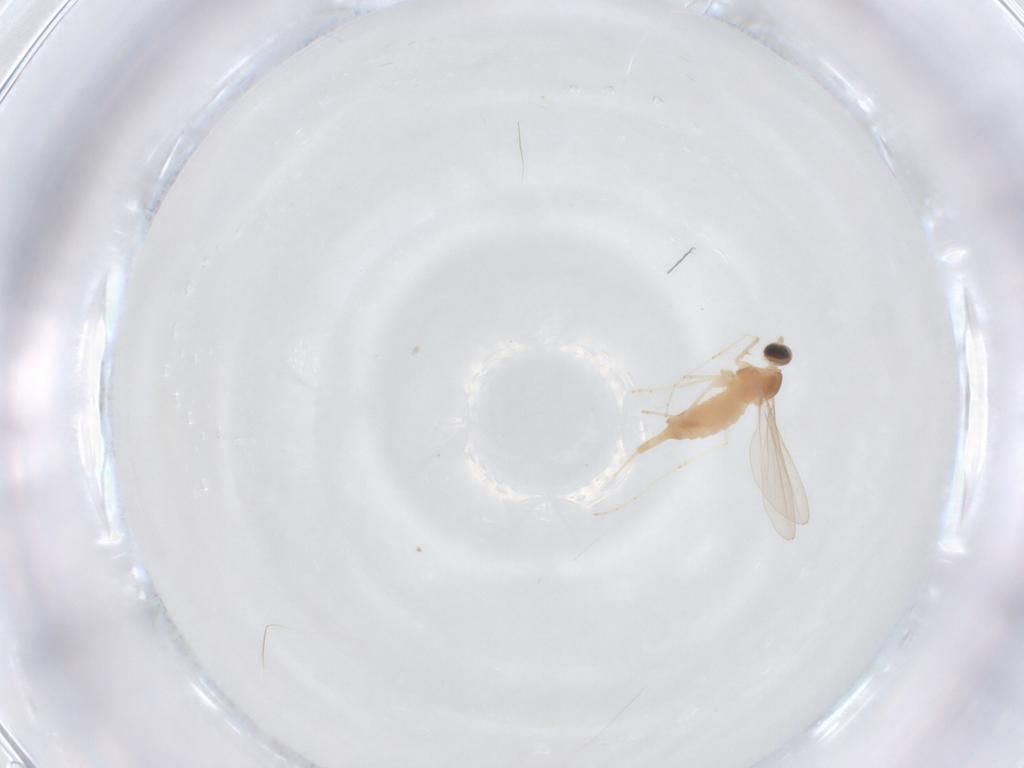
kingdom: Animalia
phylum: Arthropoda
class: Insecta
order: Diptera
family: Cecidomyiidae
